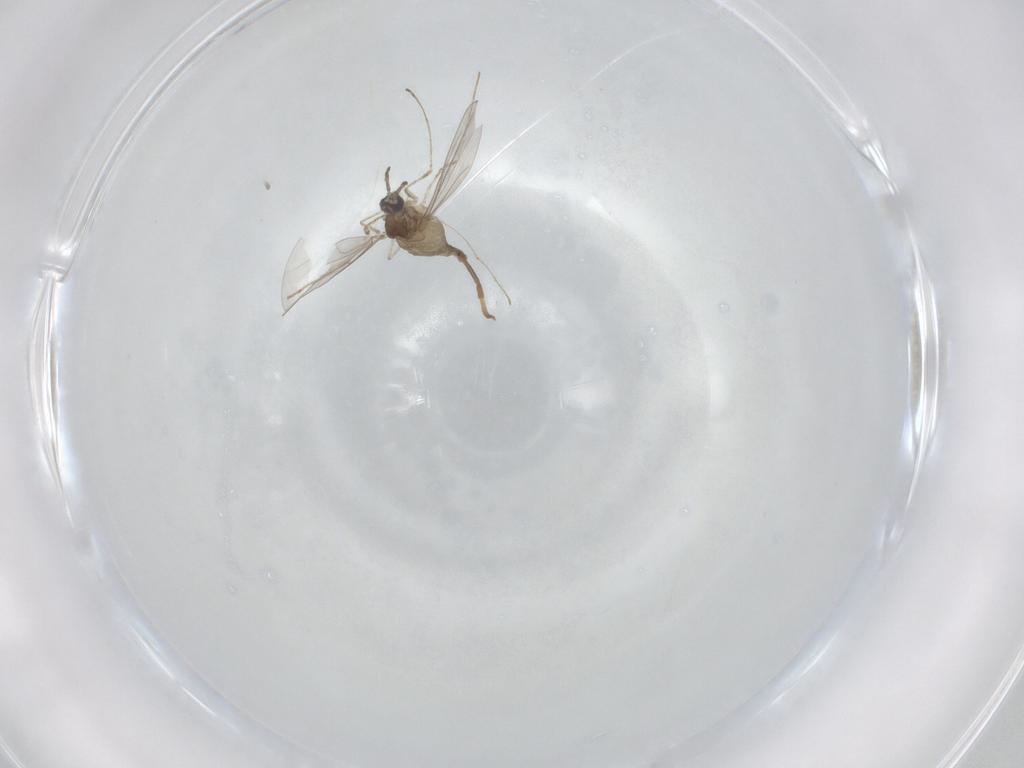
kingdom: Animalia
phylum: Arthropoda
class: Insecta
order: Diptera
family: Cecidomyiidae
